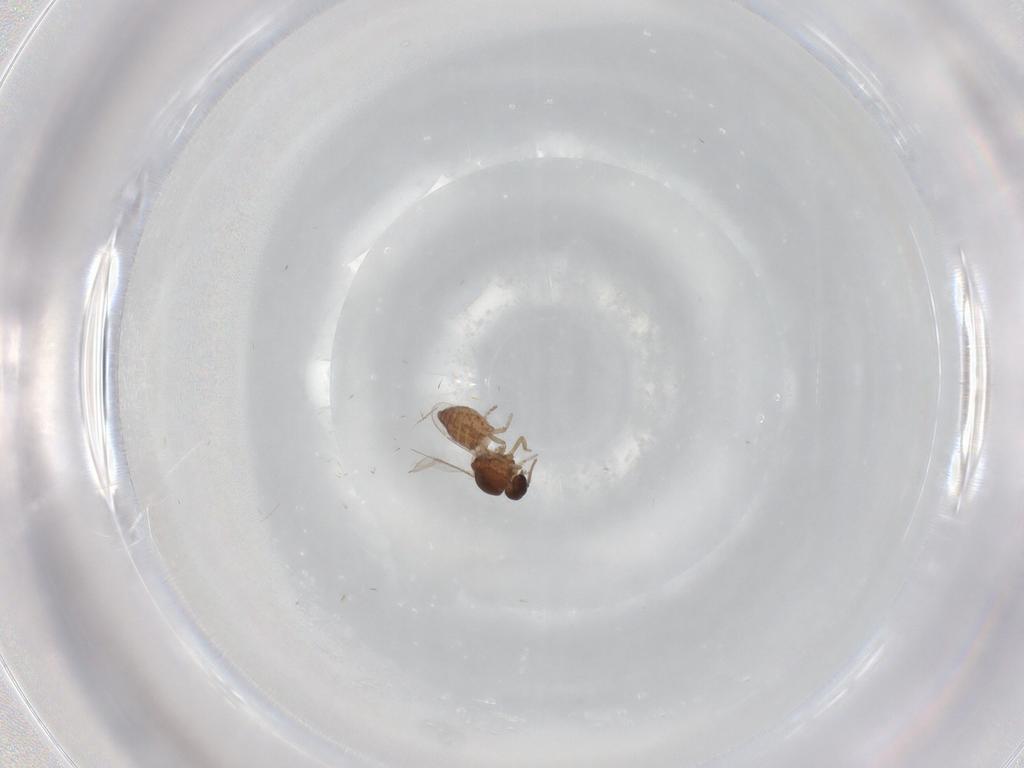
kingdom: Animalia
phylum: Arthropoda
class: Insecta
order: Diptera
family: Ceratopogonidae
